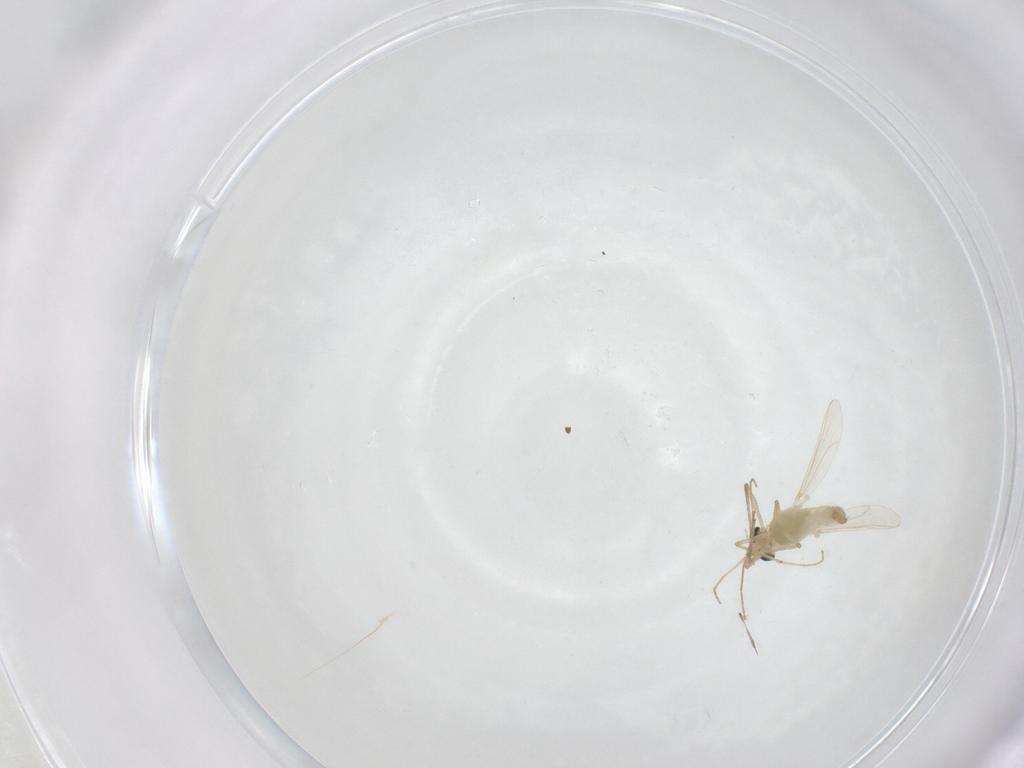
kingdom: Animalia
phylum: Arthropoda
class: Insecta
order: Diptera
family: Chironomidae
